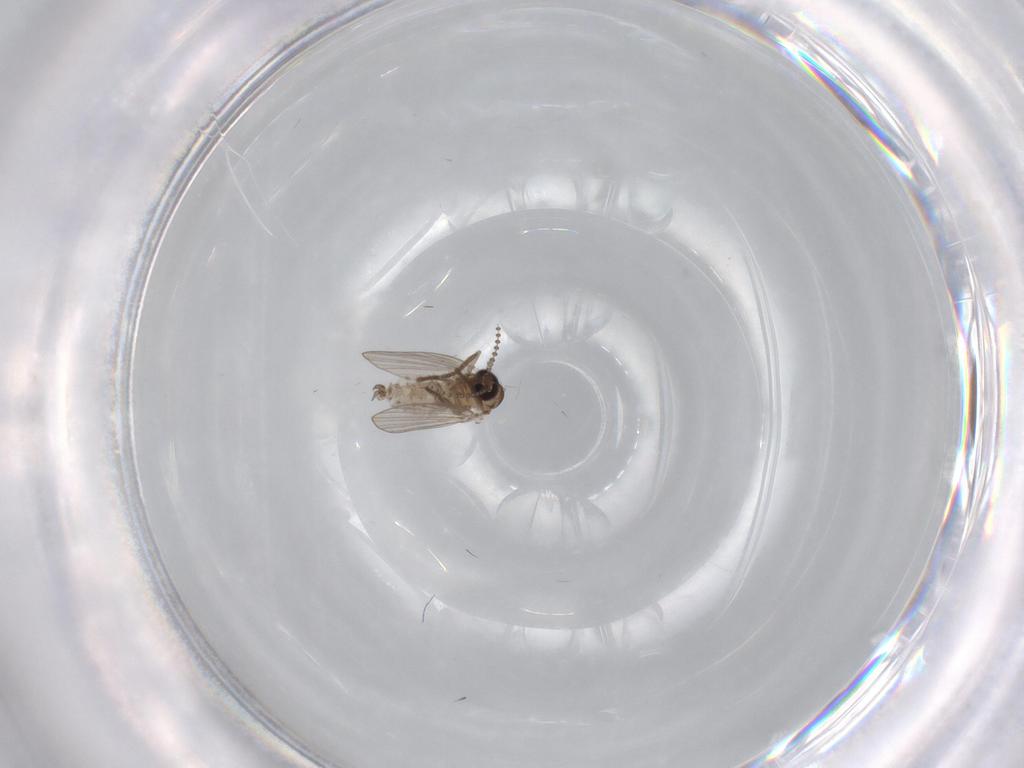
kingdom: Animalia
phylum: Arthropoda
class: Insecta
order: Diptera
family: Psychodidae
